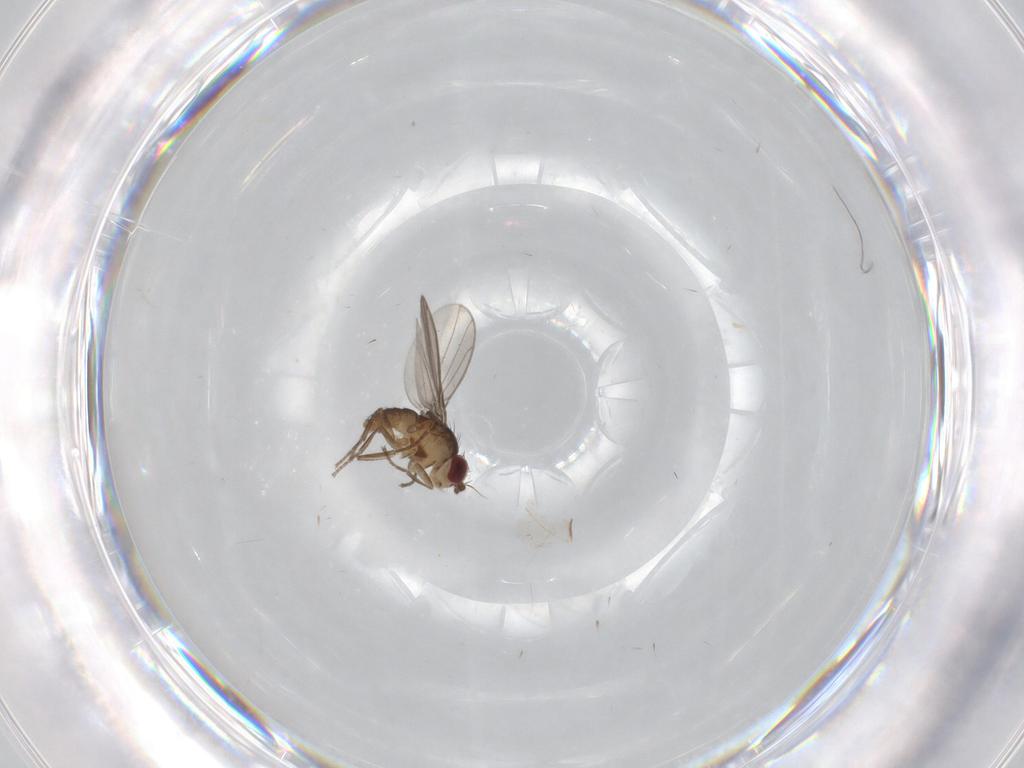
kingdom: Animalia
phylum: Arthropoda
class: Insecta
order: Diptera
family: Agromyzidae
